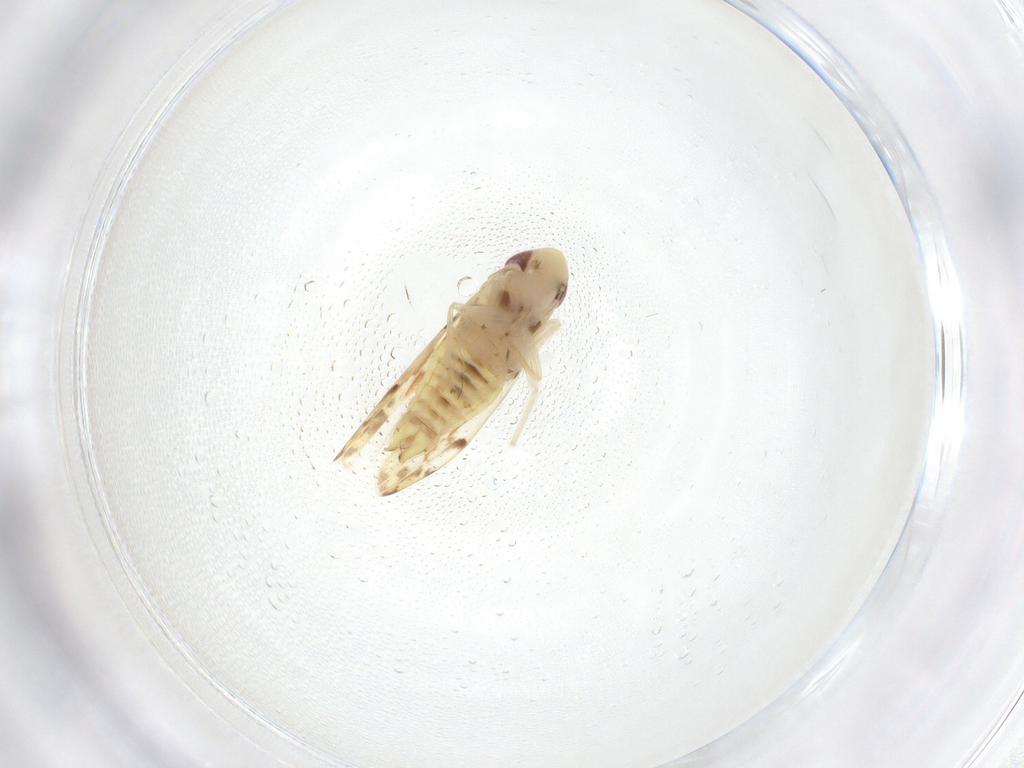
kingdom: Animalia
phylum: Arthropoda
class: Insecta
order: Hemiptera
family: Cicadellidae
